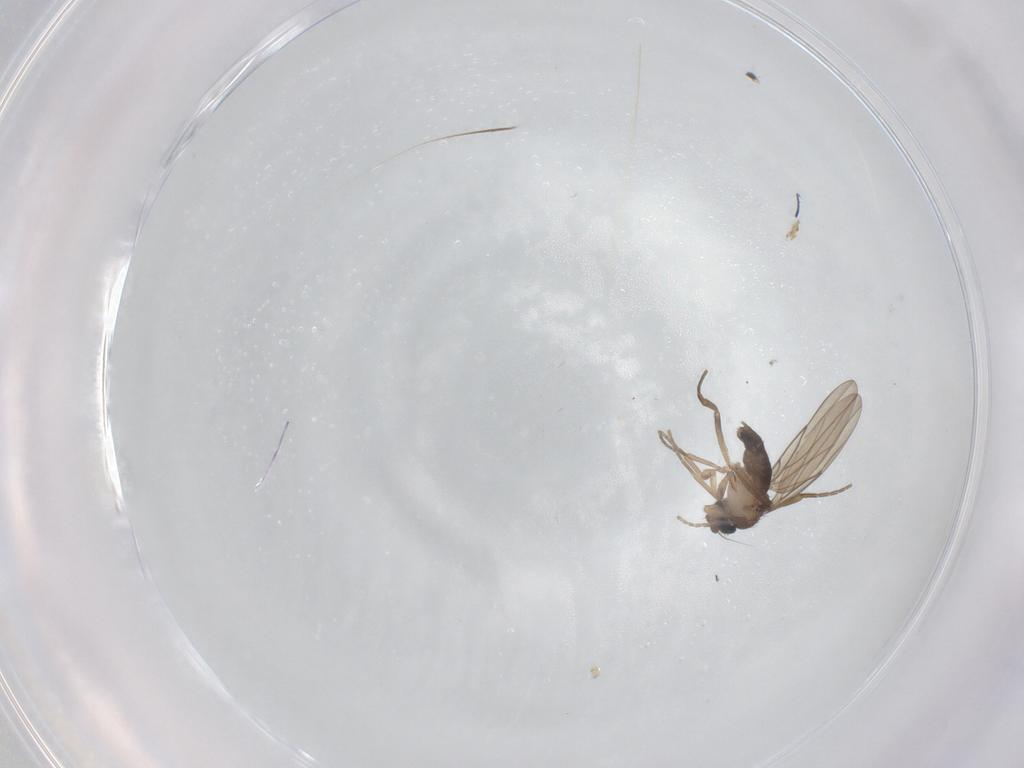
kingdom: Animalia
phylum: Arthropoda
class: Insecta
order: Diptera
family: Phoridae
